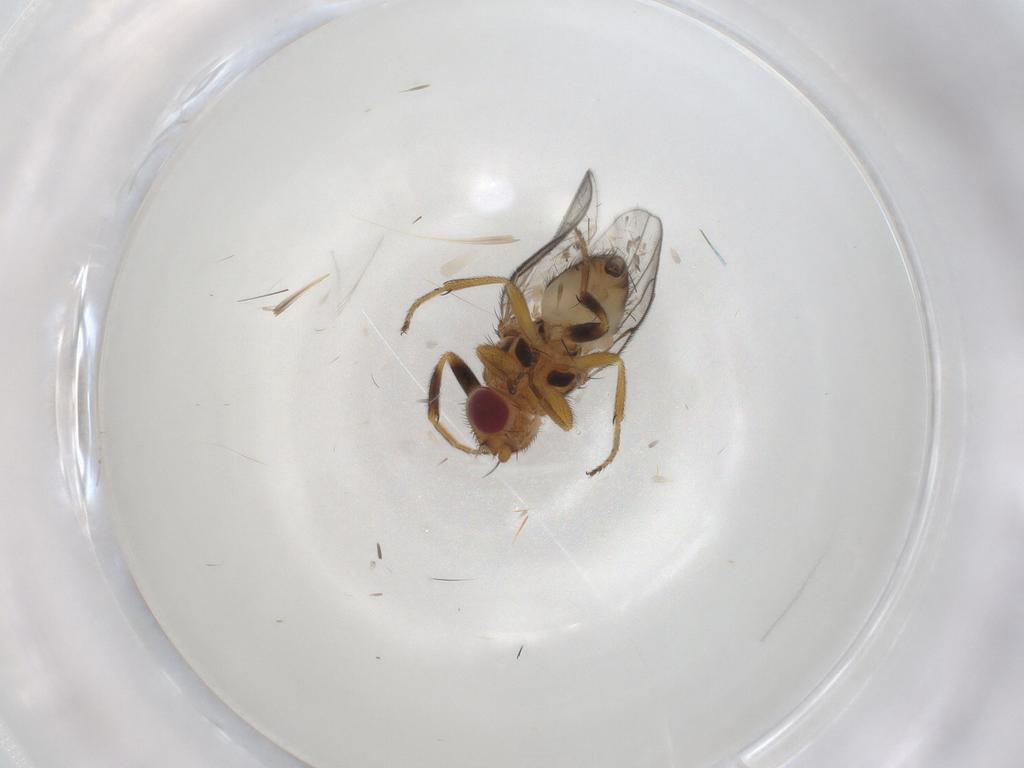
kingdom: Animalia
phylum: Arthropoda
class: Insecta
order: Diptera
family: Chloropidae
